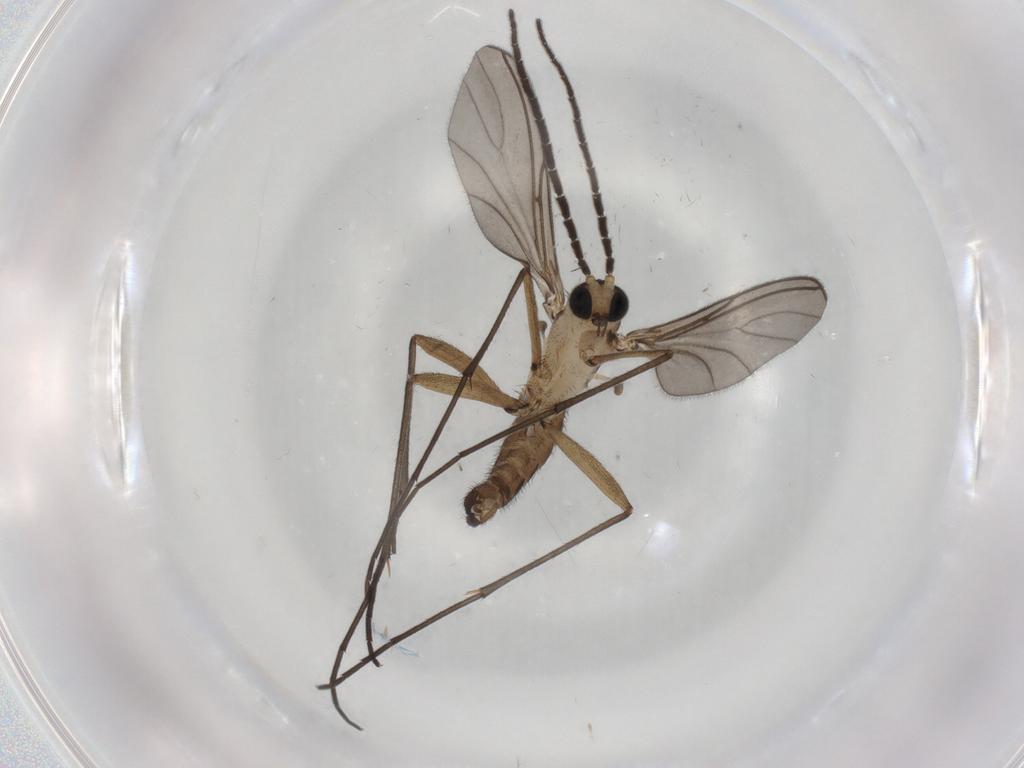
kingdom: Animalia
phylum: Arthropoda
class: Insecta
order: Diptera
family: Sciaridae
